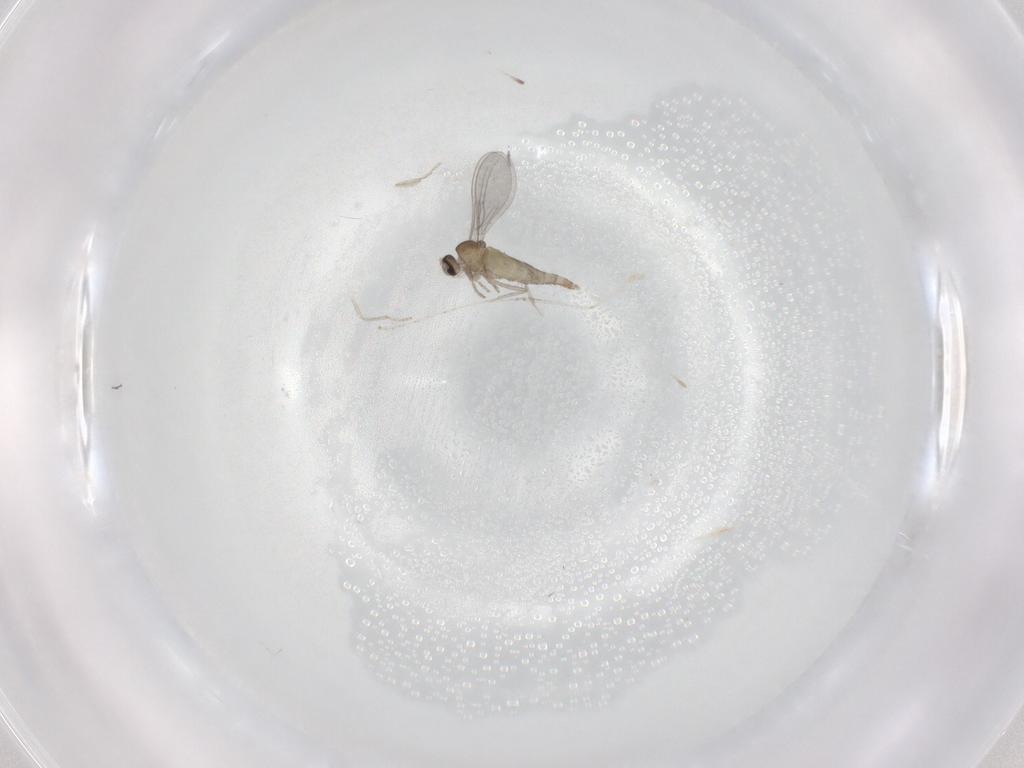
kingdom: Animalia
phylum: Arthropoda
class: Insecta
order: Diptera
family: Cecidomyiidae
